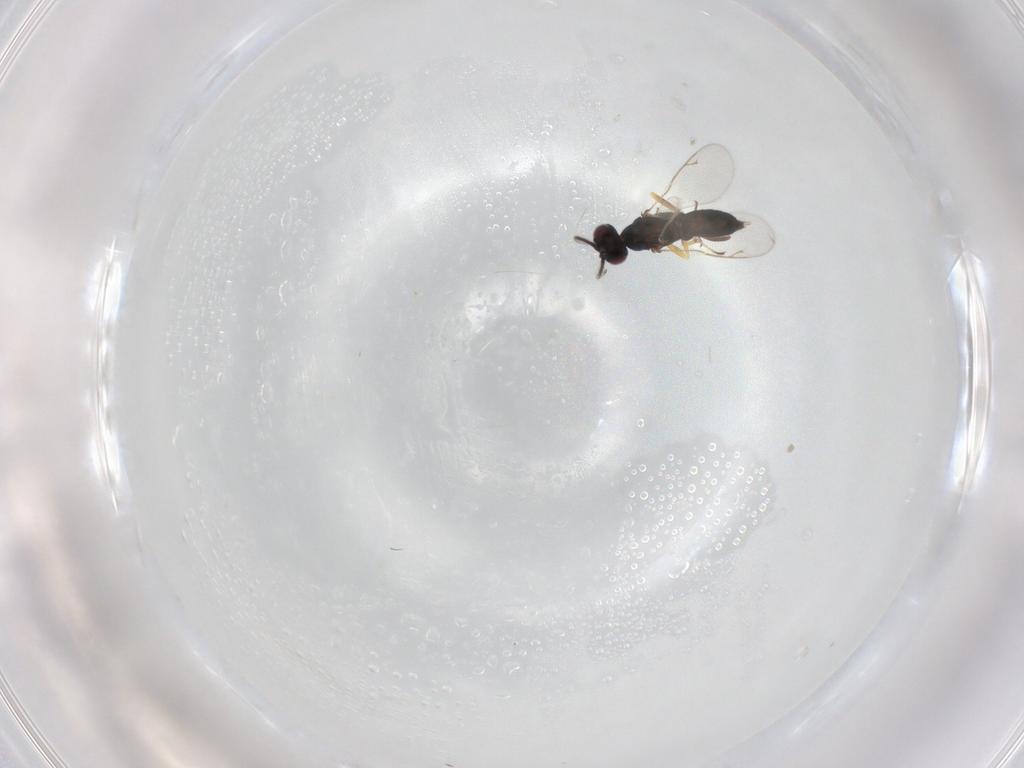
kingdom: Animalia
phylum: Arthropoda
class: Insecta
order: Hymenoptera
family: Eupelmidae
